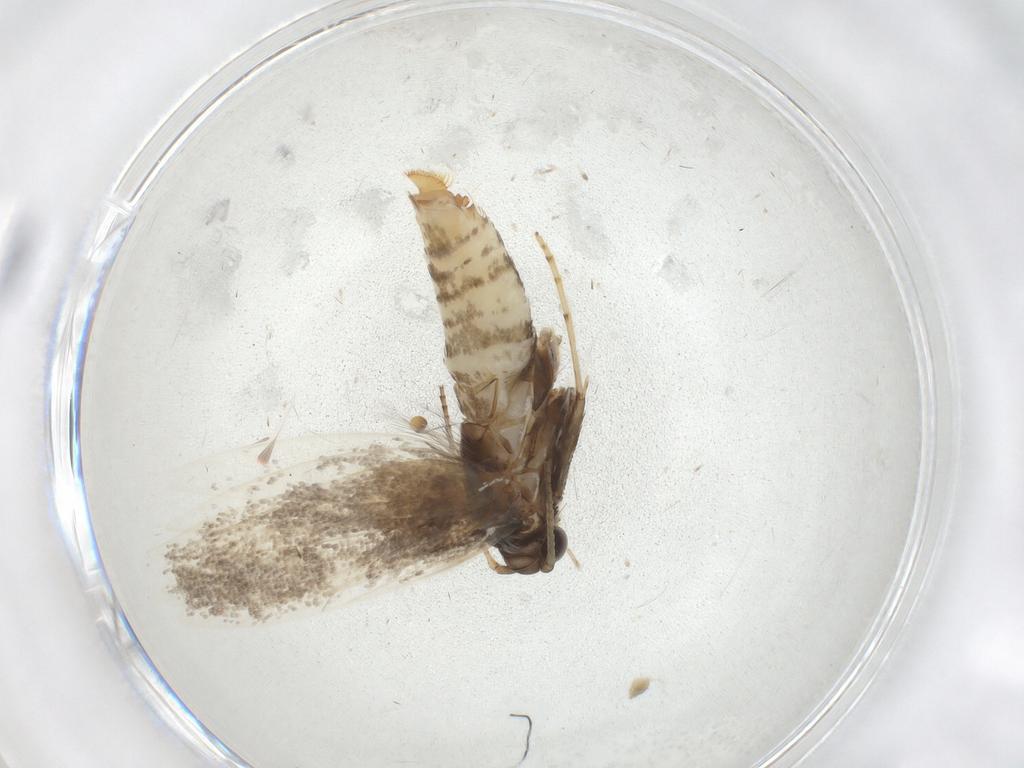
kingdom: Animalia
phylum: Arthropoda
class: Insecta
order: Lepidoptera
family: Gracillariidae
